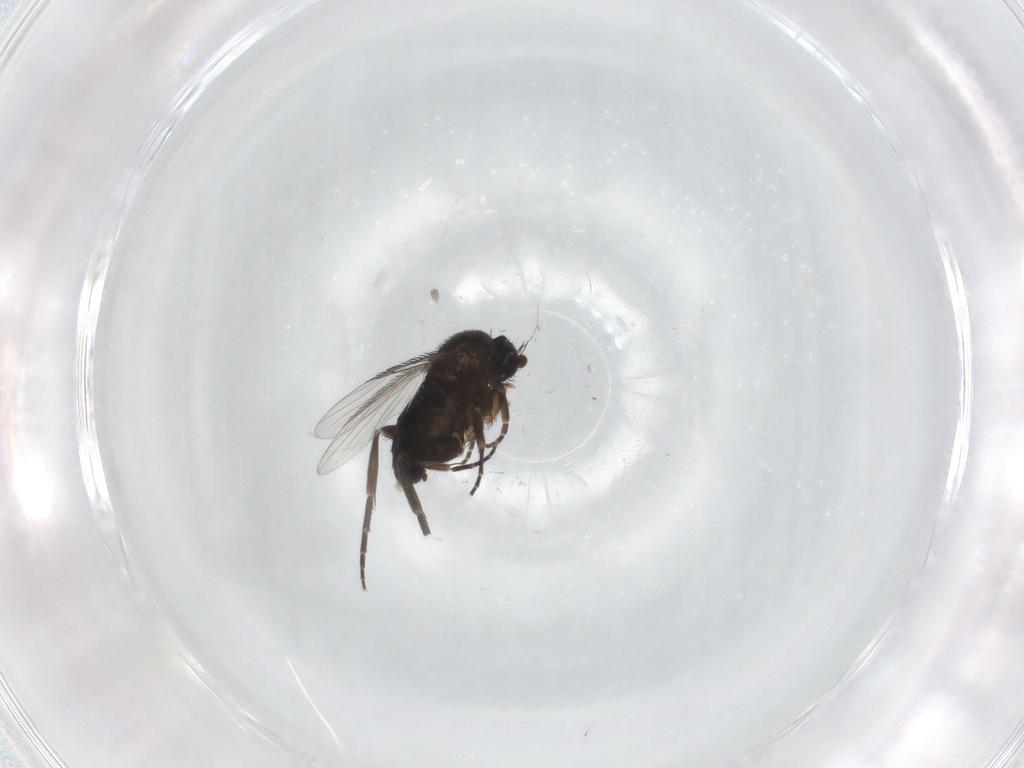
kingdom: Animalia
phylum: Arthropoda
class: Insecta
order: Diptera
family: Phoridae
